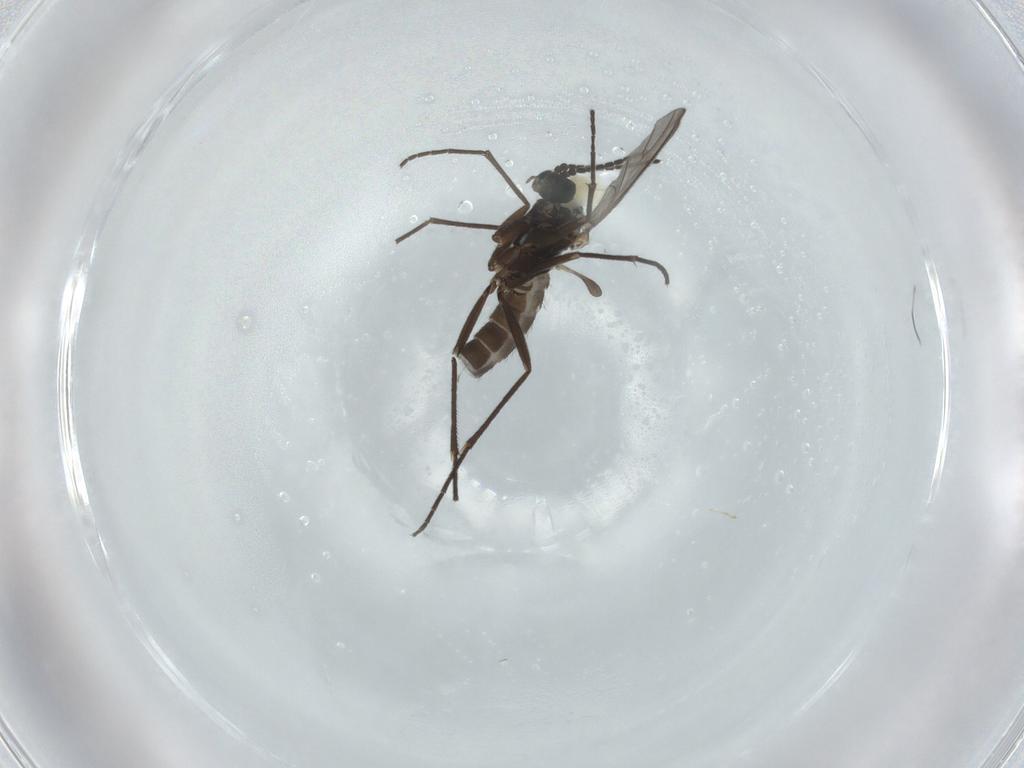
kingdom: Animalia
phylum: Arthropoda
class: Insecta
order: Diptera
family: Sciaridae
